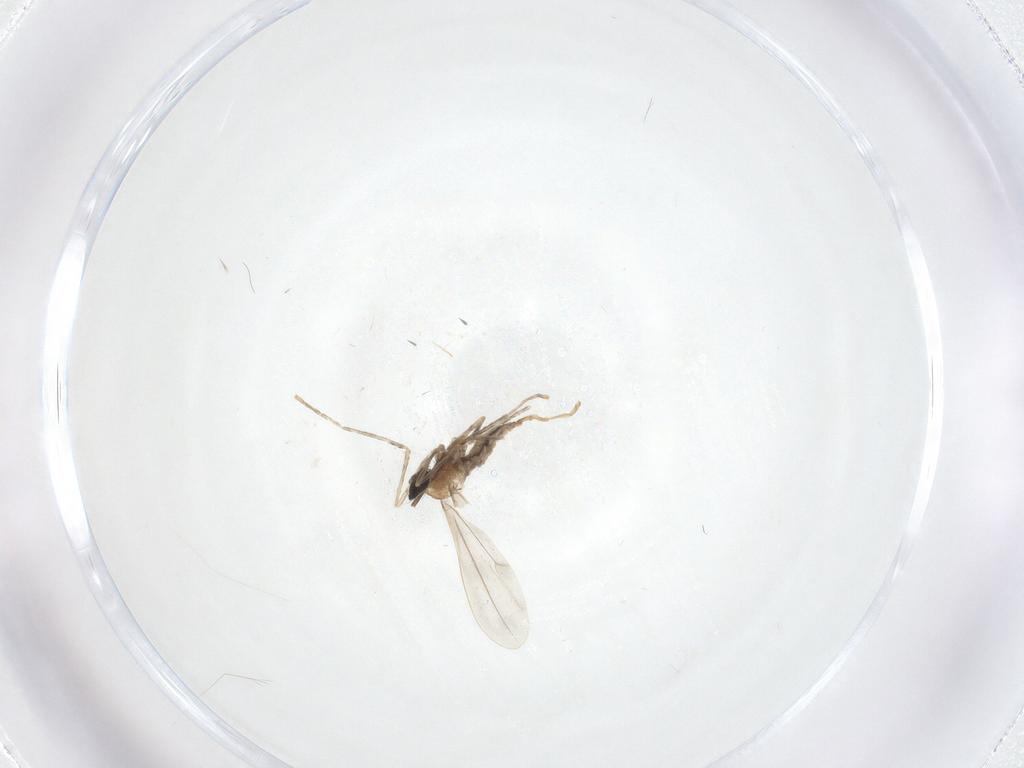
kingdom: Animalia
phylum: Arthropoda
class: Insecta
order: Diptera
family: Cecidomyiidae
